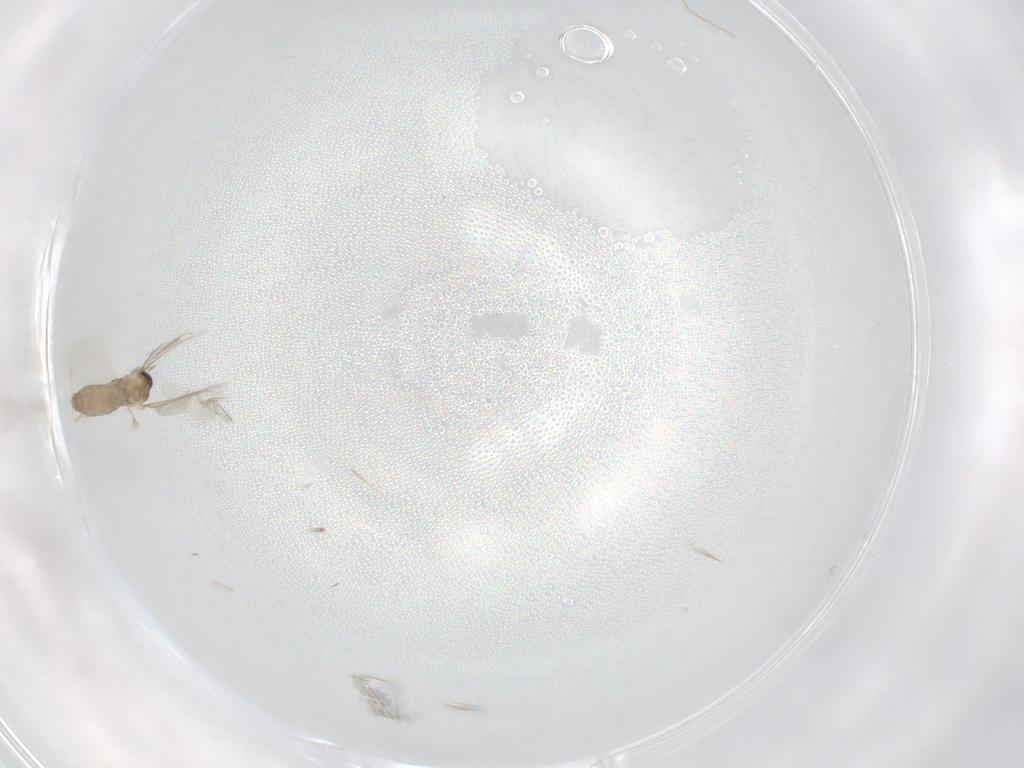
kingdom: Animalia
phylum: Arthropoda
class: Insecta
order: Diptera
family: Chironomidae
